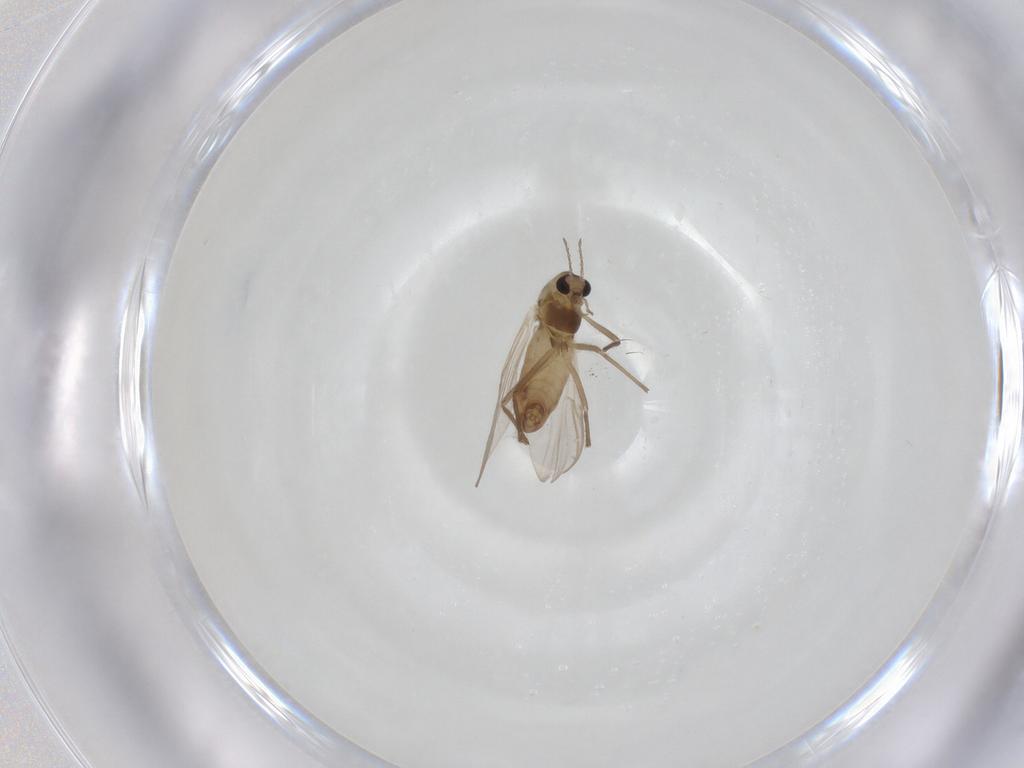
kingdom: Animalia
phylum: Arthropoda
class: Insecta
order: Diptera
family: Chironomidae
